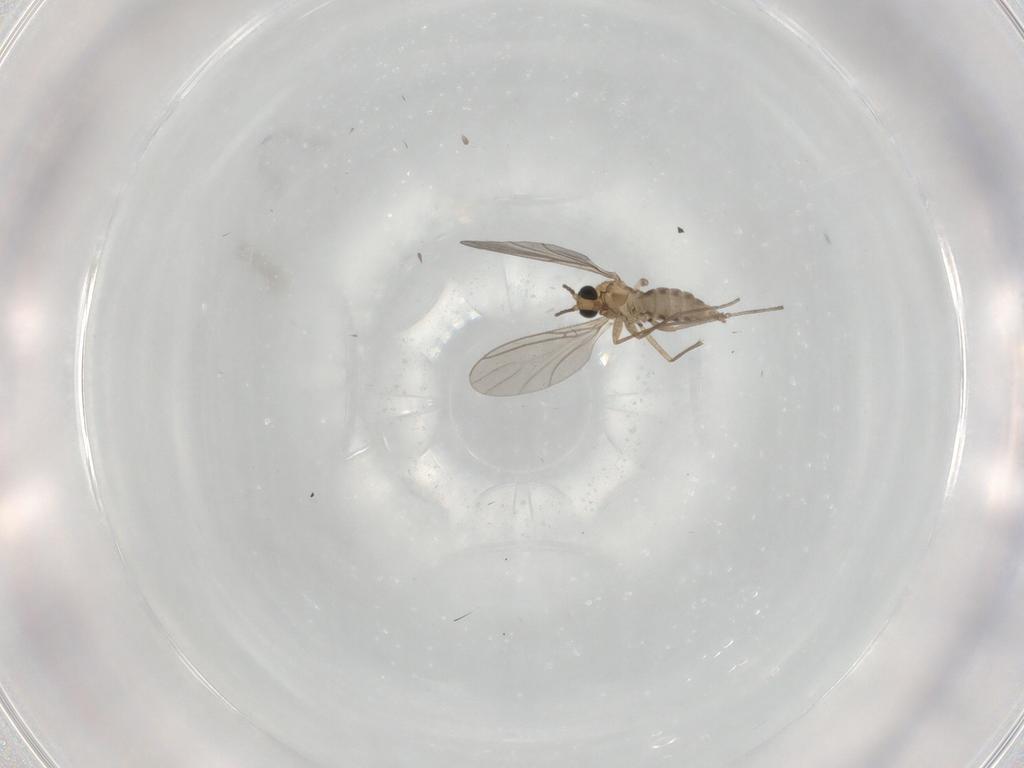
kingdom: Animalia
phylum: Arthropoda
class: Insecta
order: Diptera
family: Sciaridae
